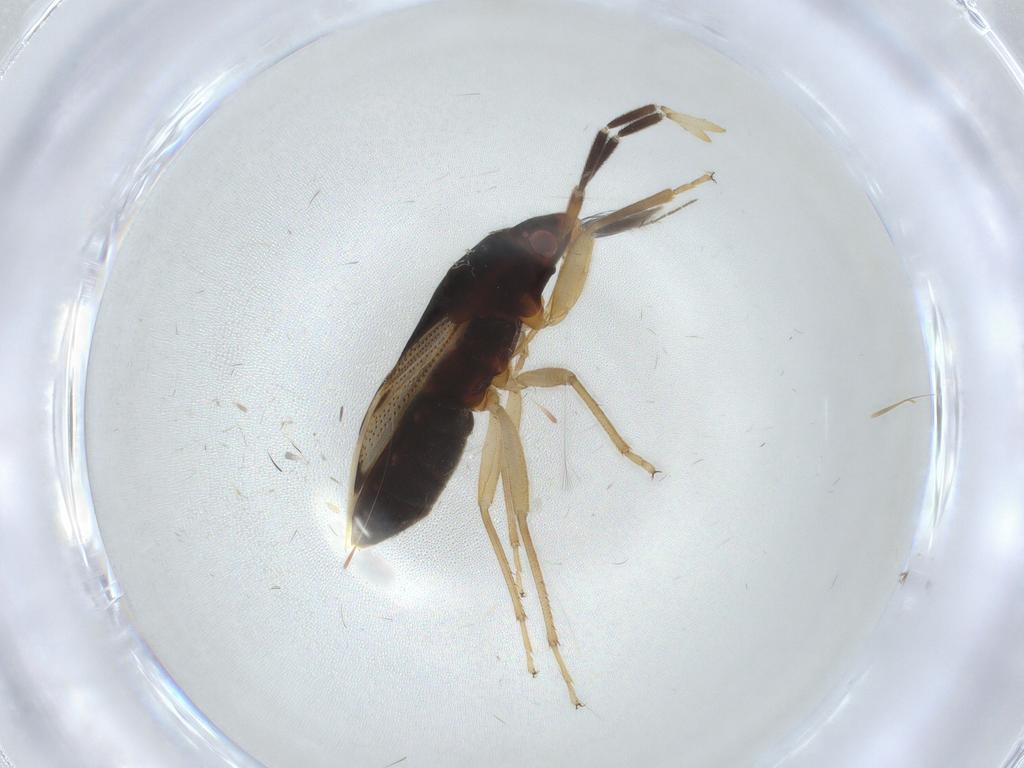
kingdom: Animalia
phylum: Arthropoda
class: Insecta
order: Hemiptera
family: Rhyparochromidae
